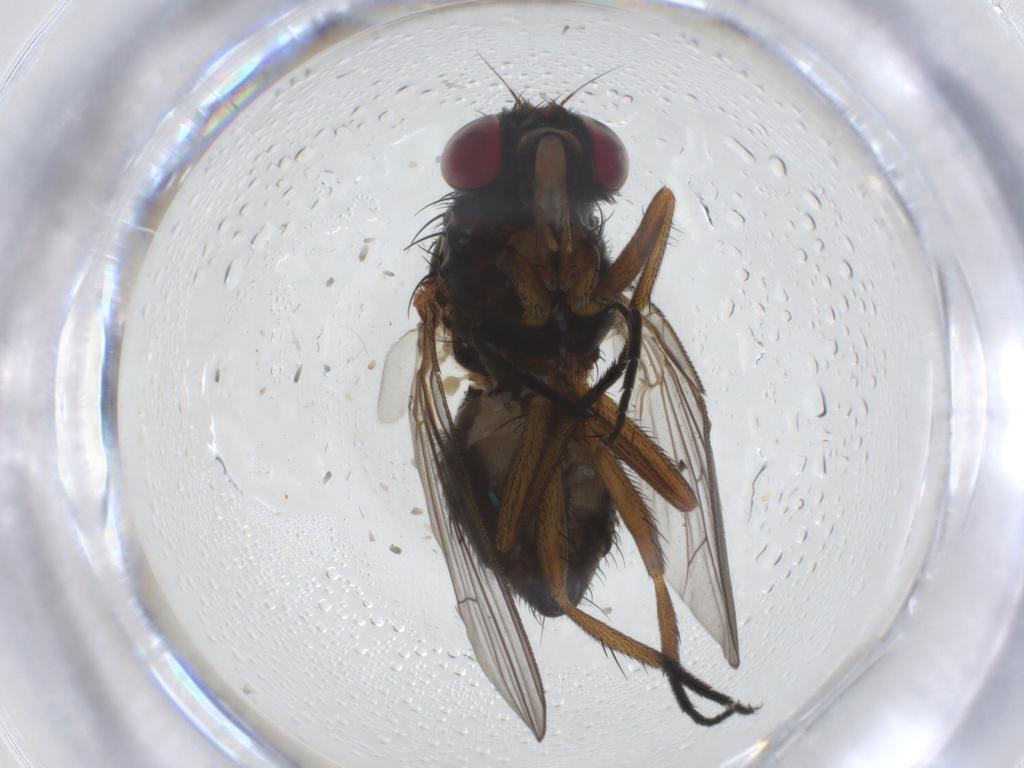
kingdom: Animalia
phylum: Arthropoda
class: Insecta
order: Diptera
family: Fannia
